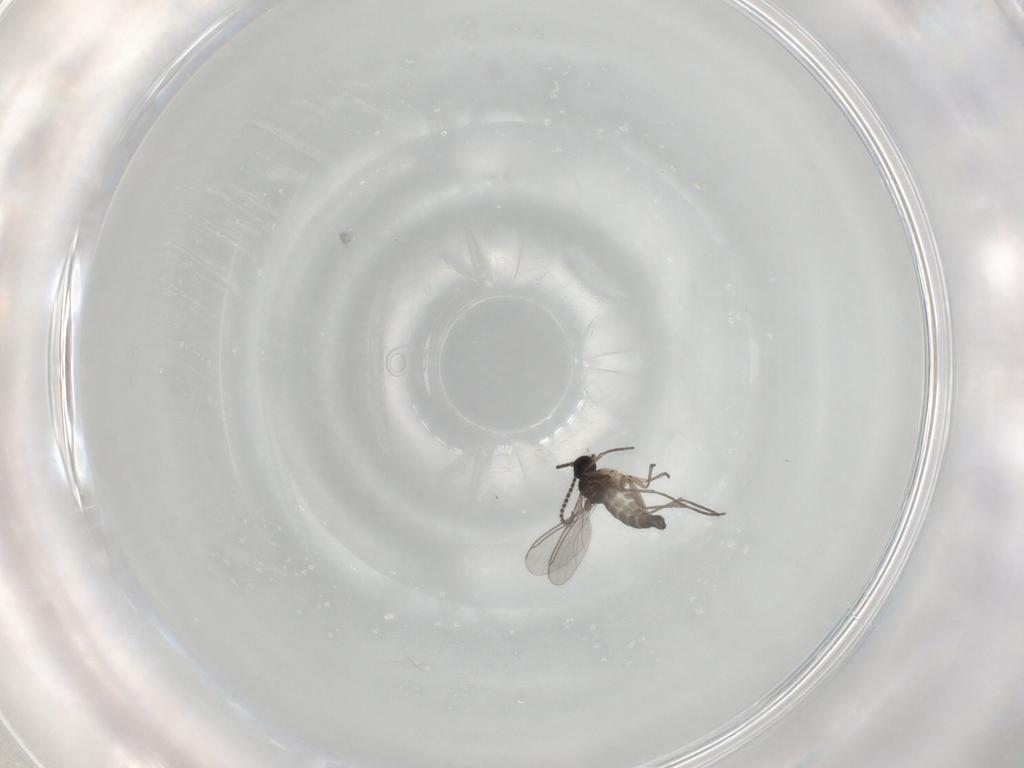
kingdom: Animalia
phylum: Arthropoda
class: Insecta
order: Diptera
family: Sciaridae
